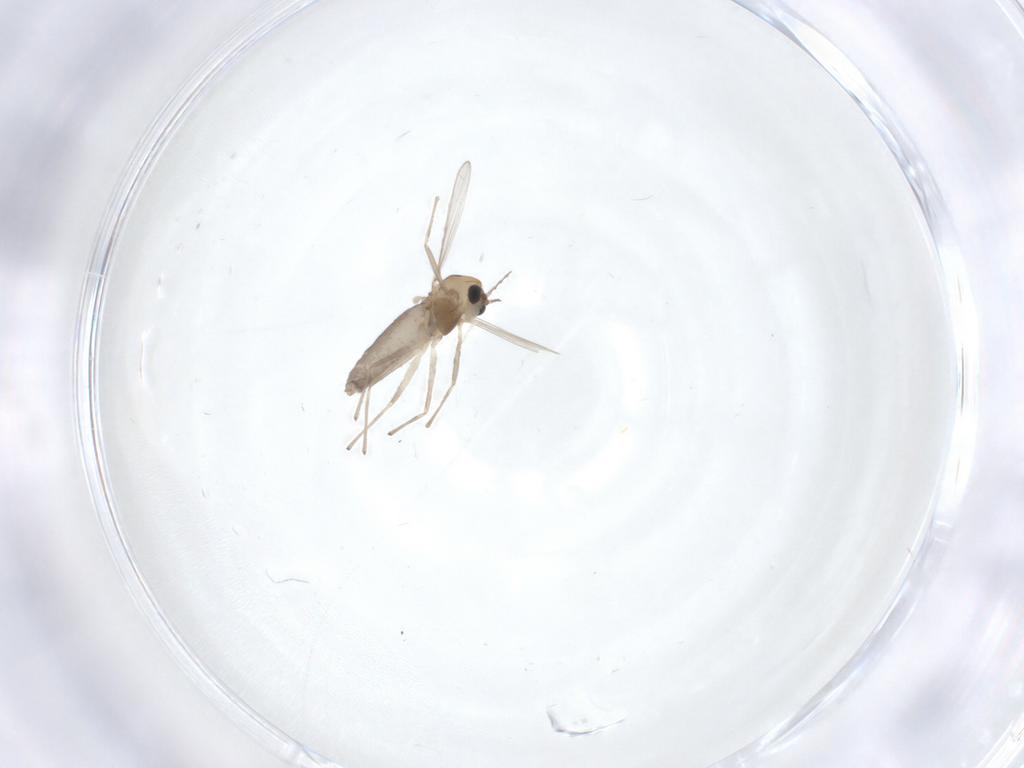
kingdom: Animalia
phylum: Arthropoda
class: Insecta
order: Diptera
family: Chironomidae
